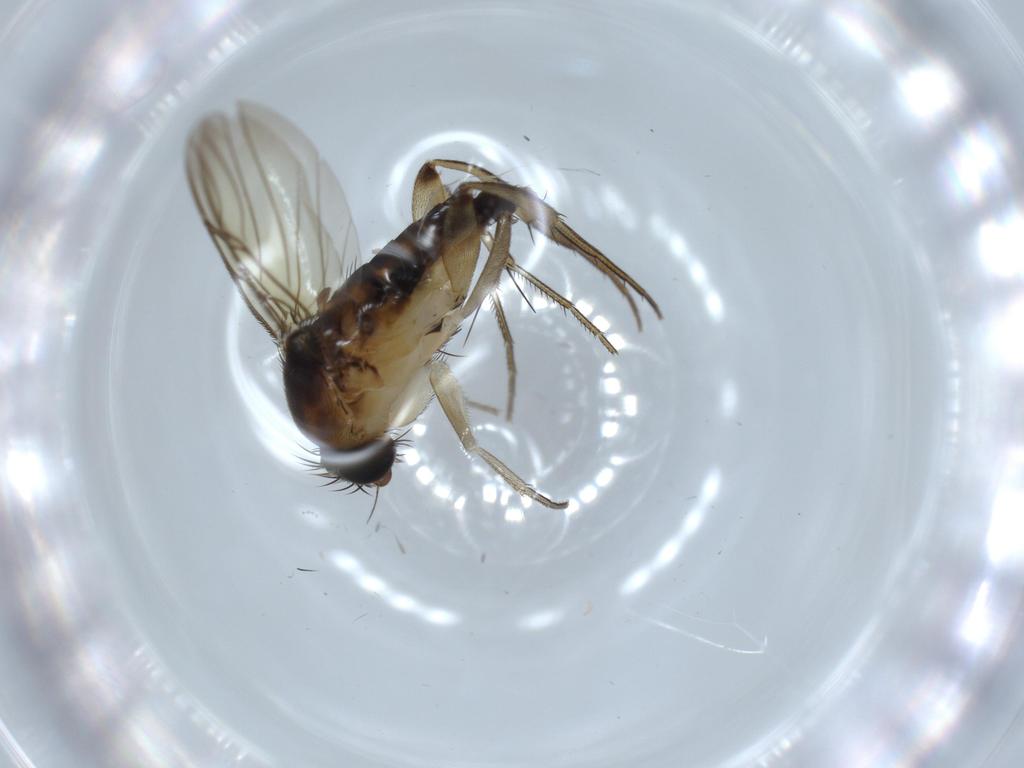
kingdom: Animalia
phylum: Arthropoda
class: Insecta
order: Diptera
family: Phoridae
